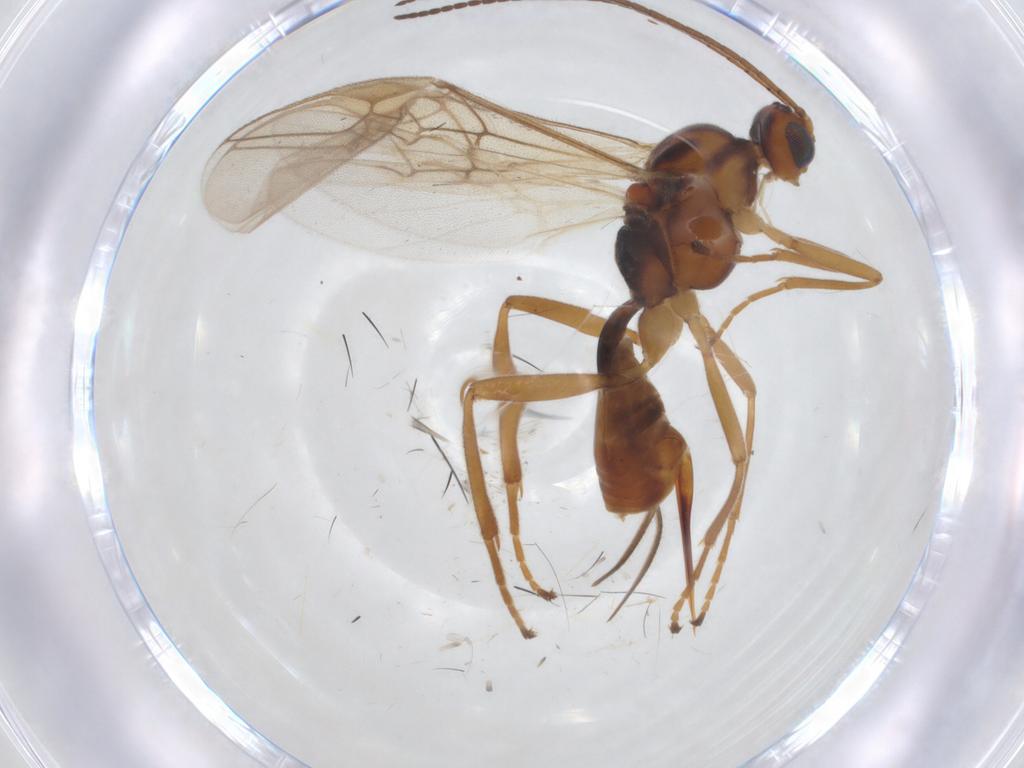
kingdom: Animalia
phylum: Arthropoda
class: Insecta
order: Hymenoptera
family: Braconidae
